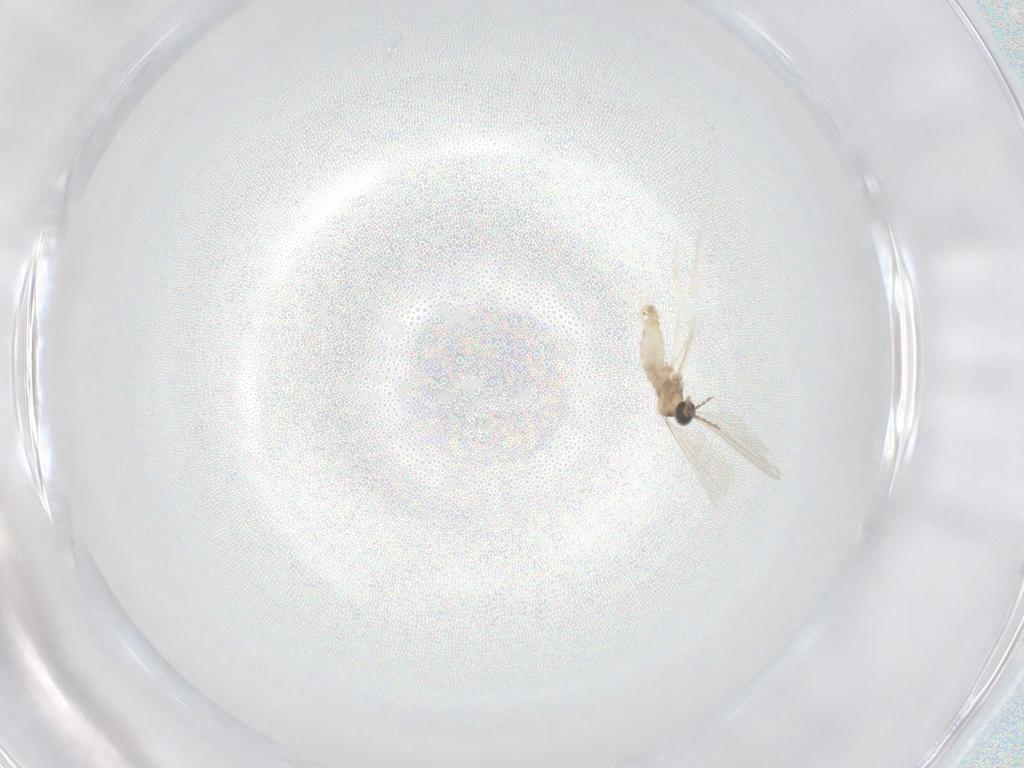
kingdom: Animalia
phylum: Arthropoda
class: Insecta
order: Diptera
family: Cecidomyiidae
